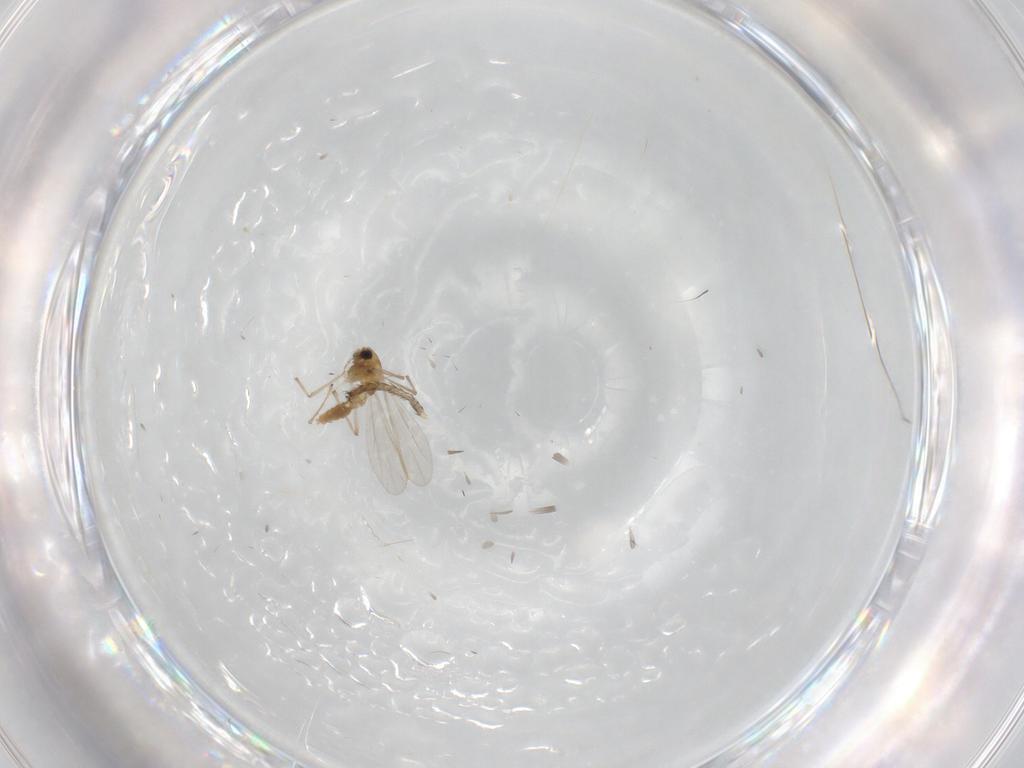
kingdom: Animalia
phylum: Arthropoda
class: Insecta
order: Diptera
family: Chironomidae
